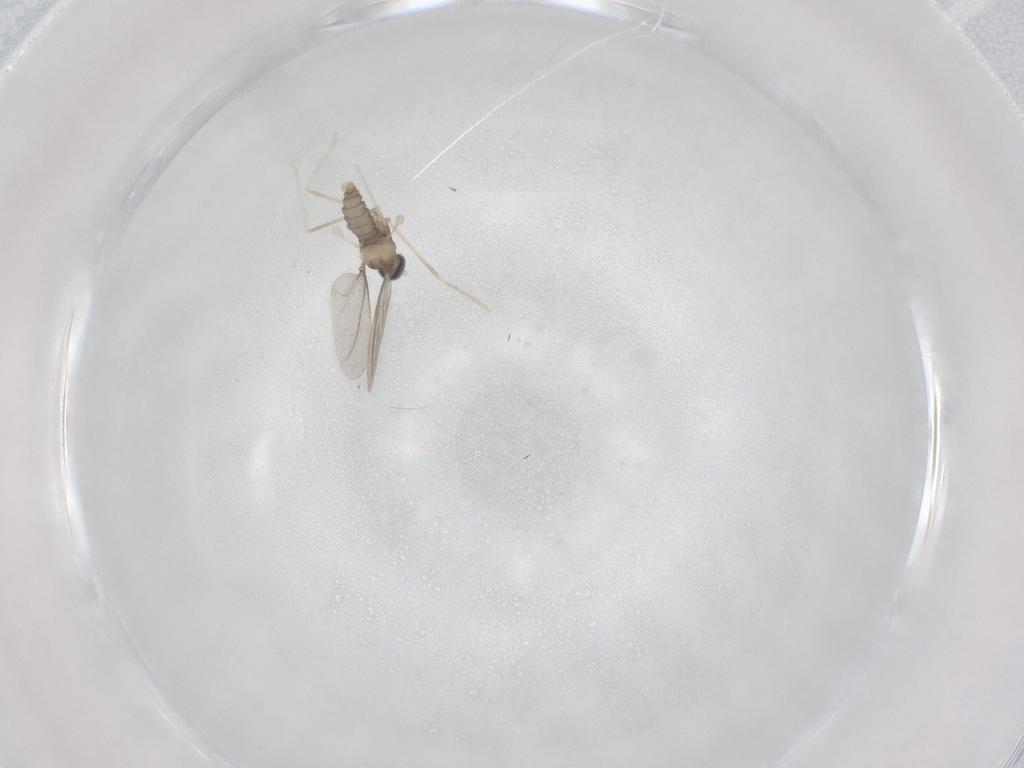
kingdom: Animalia
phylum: Arthropoda
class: Insecta
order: Diptera
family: Cecidomyiidae
